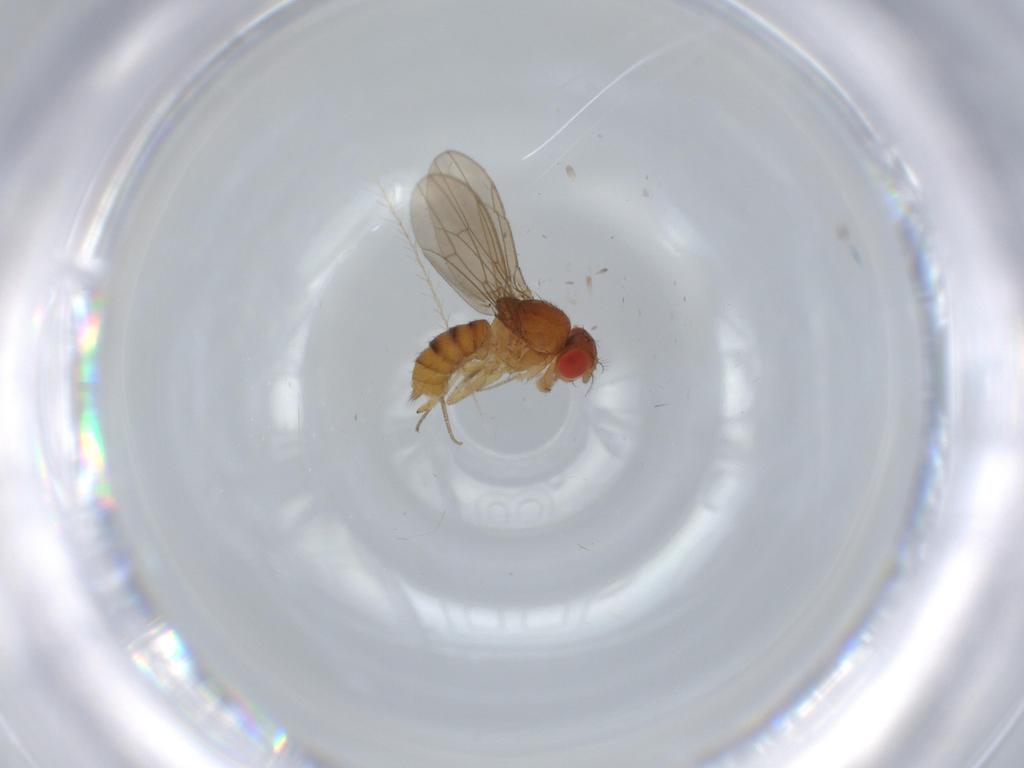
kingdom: Animalia
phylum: Arthropoda
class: Insecta
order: Diptera
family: Drosophilidae
